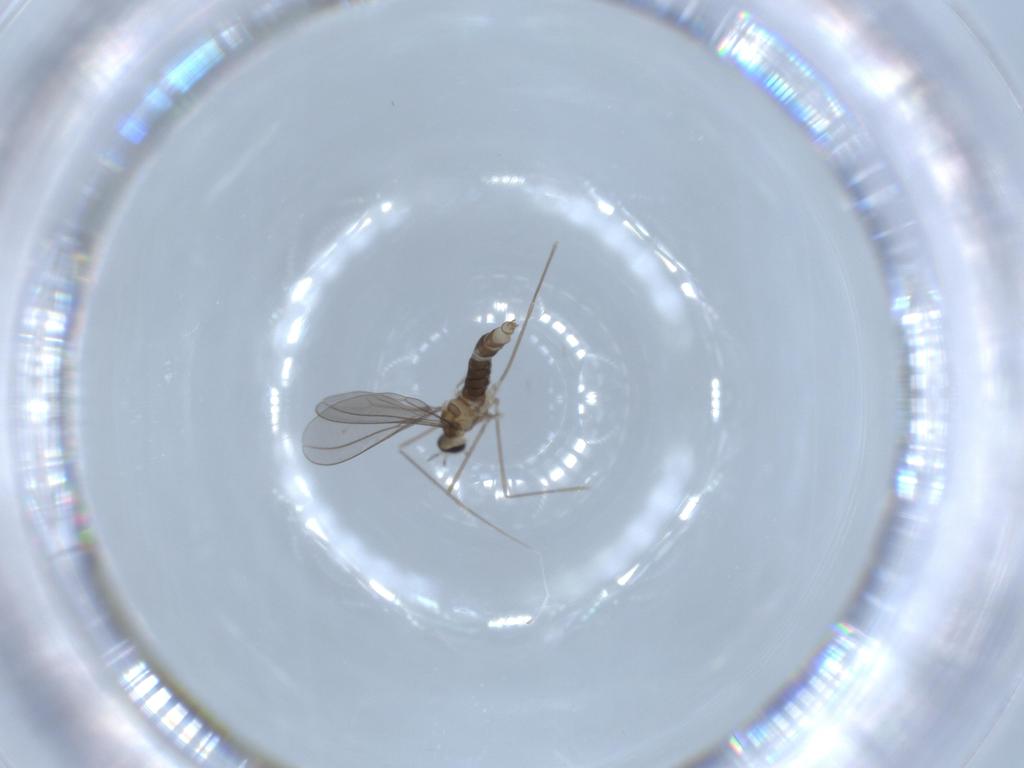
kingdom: Animalia
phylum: Arthropoda
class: Insecta
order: Diptera
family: Cecidomyiidae
